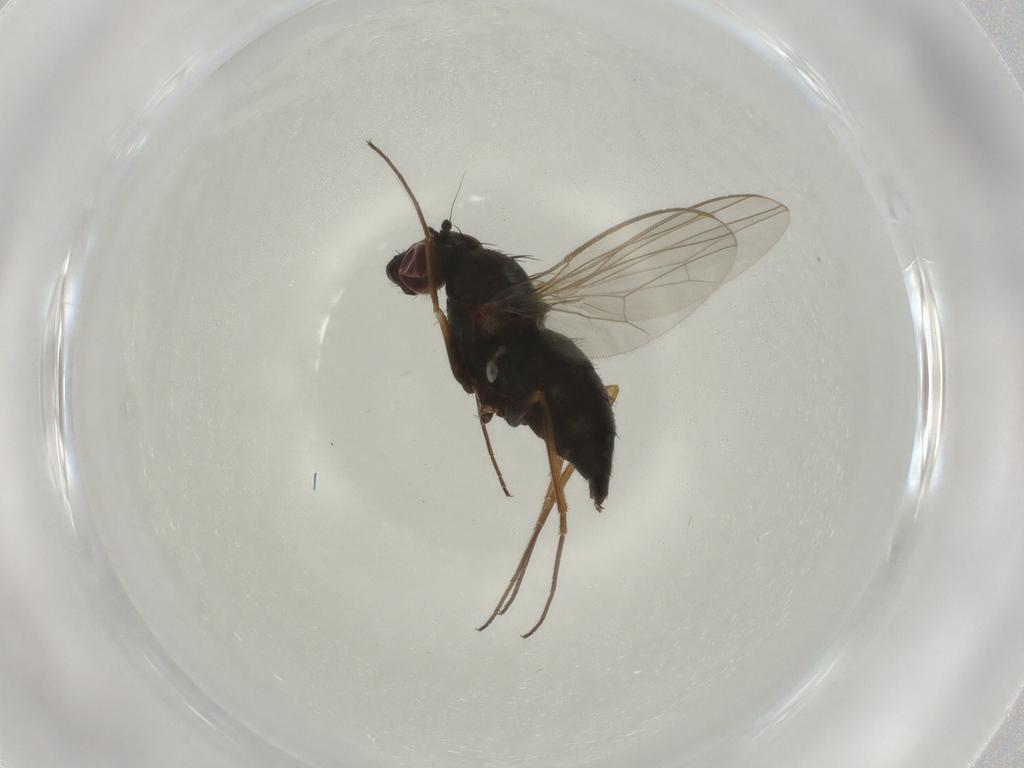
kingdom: Animalia
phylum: Arthropoda
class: Insecta
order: Diptera
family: Dolichopodidae
